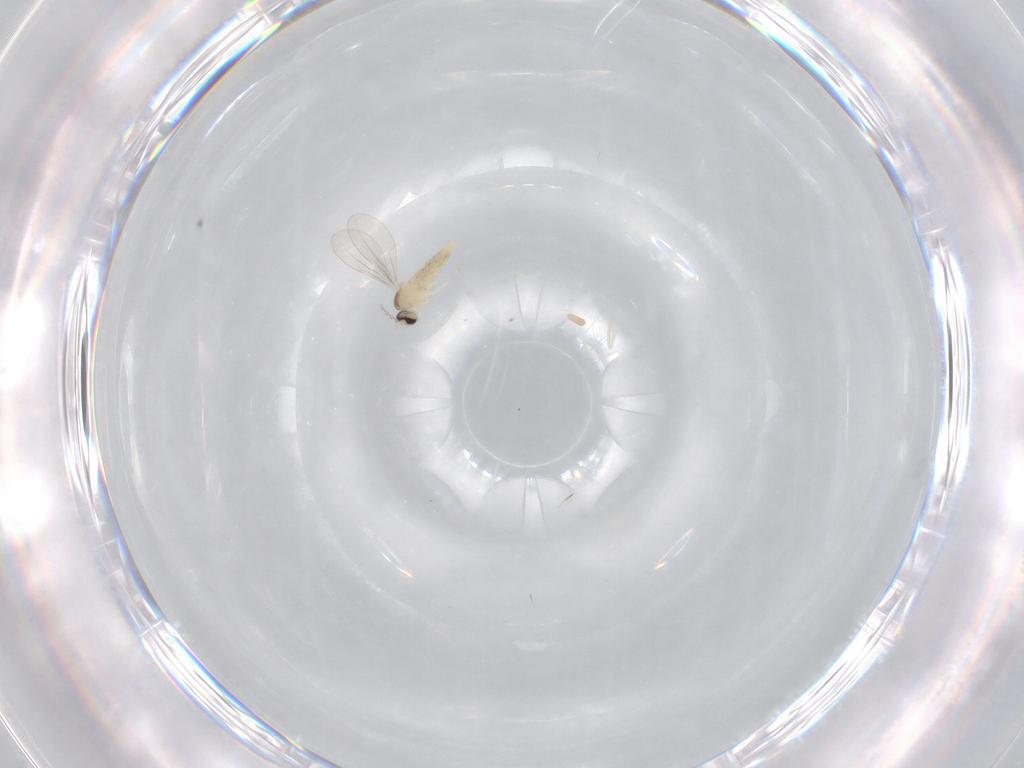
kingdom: Animalia
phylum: Arthropoda
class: Insecta
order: Diptera
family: Cecidomyiidae
